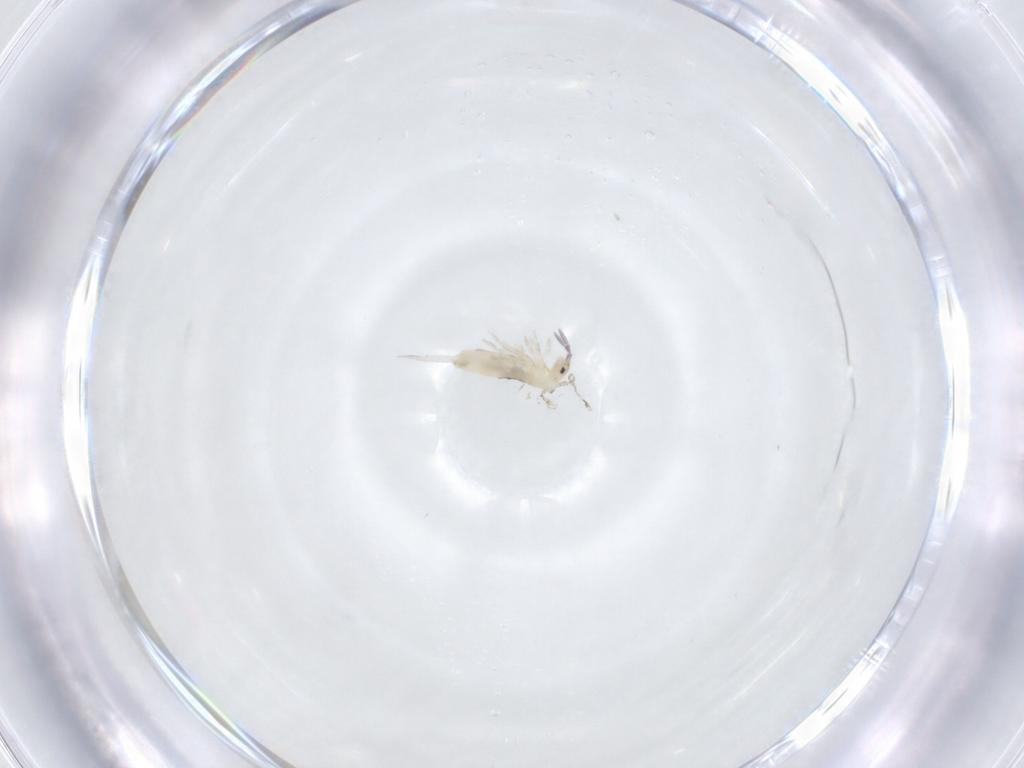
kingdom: Animalia
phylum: Arthropoda
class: Collembola
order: Entomobryomorpha
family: Entomobryidae
